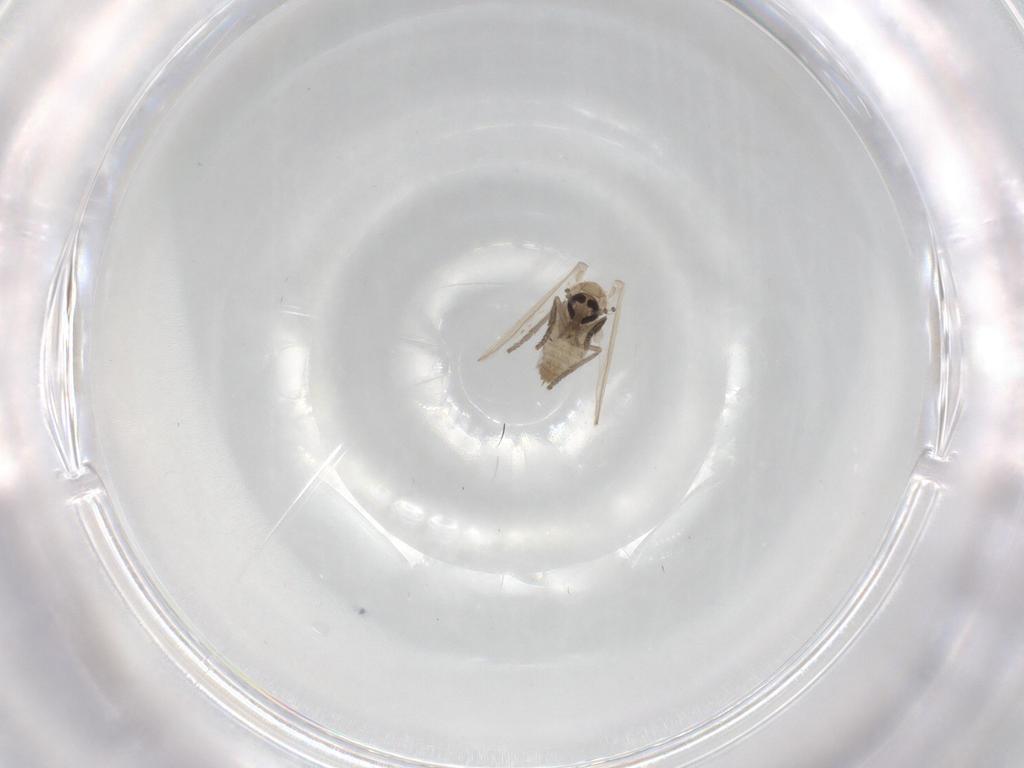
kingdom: Animalia
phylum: Arthropoda
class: Insecta
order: Diptera
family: Psychodidae
